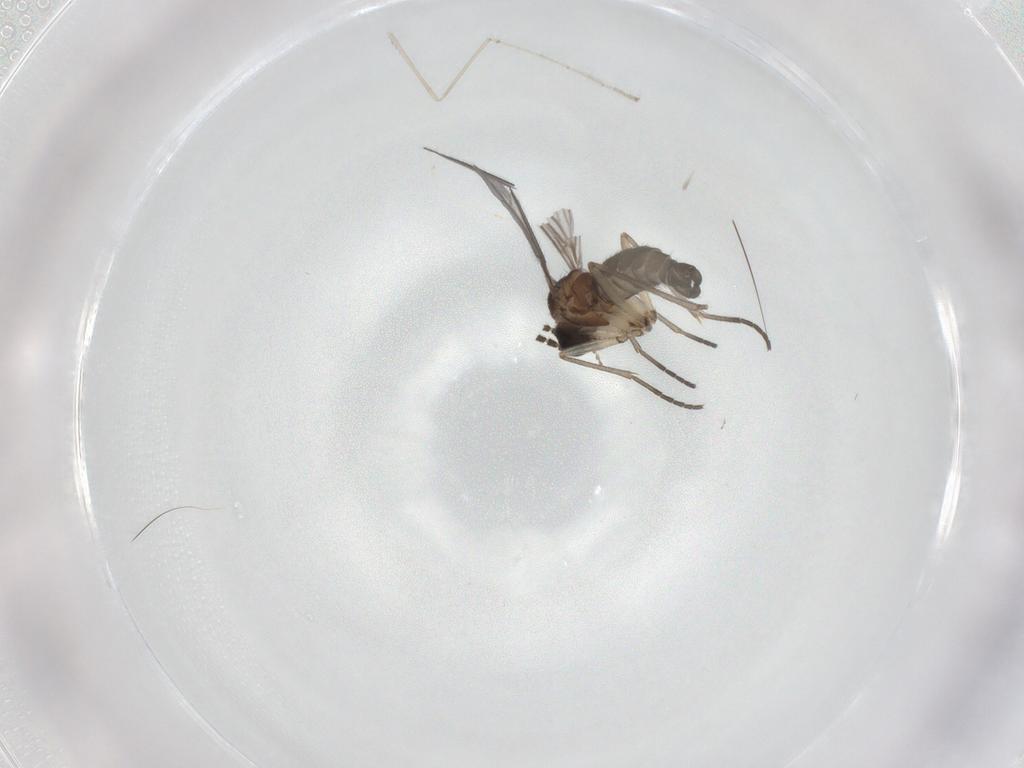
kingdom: Animalia
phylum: Arthropoda
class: Insecta
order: Diptera
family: Sciaridae
